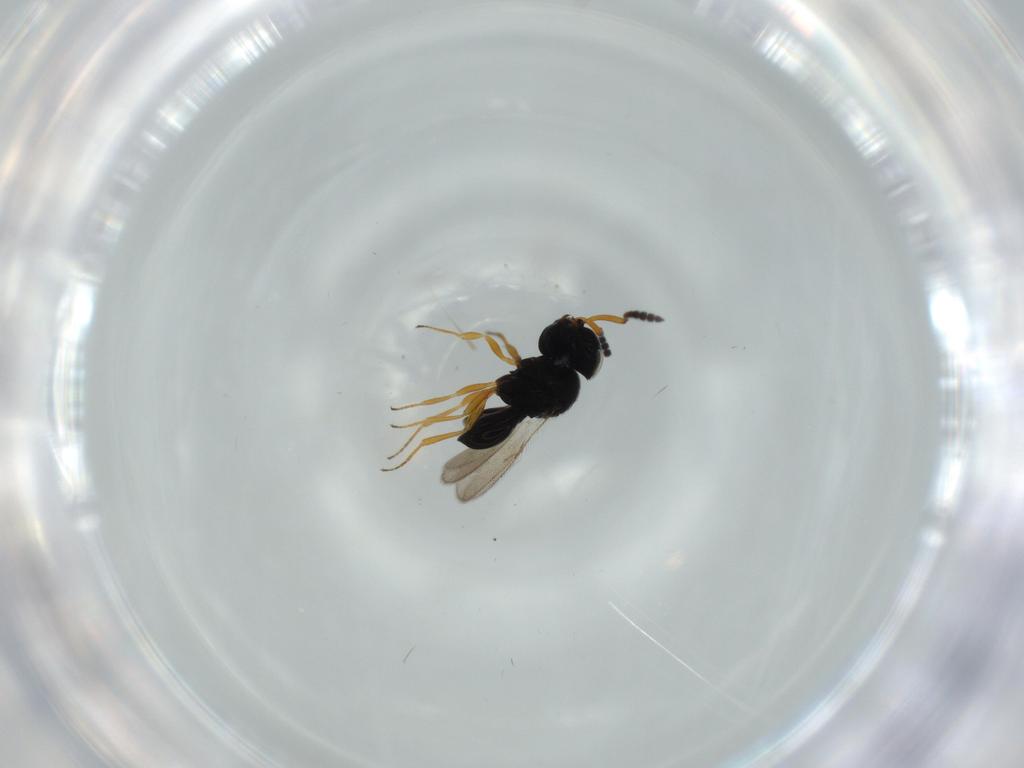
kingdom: Animalia
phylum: Arthropoda
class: Insecta
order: Hymenoptera
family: Scelionidae
